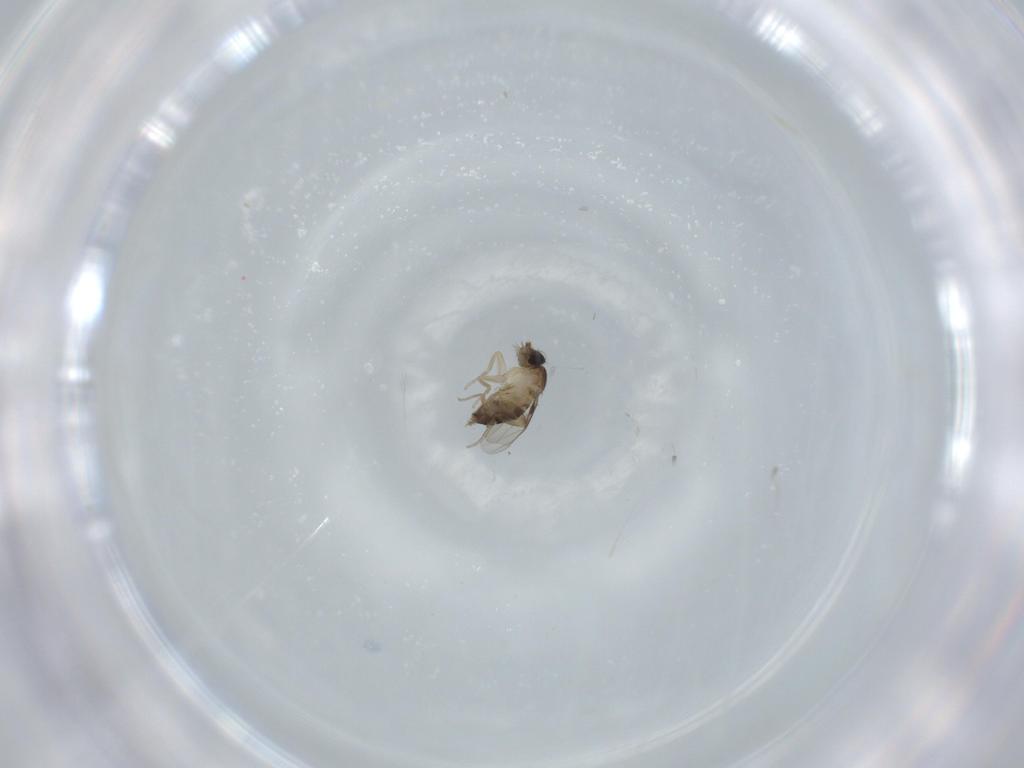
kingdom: Animalia
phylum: Arthropoda
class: Insecta
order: Diptera
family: Phoridae
